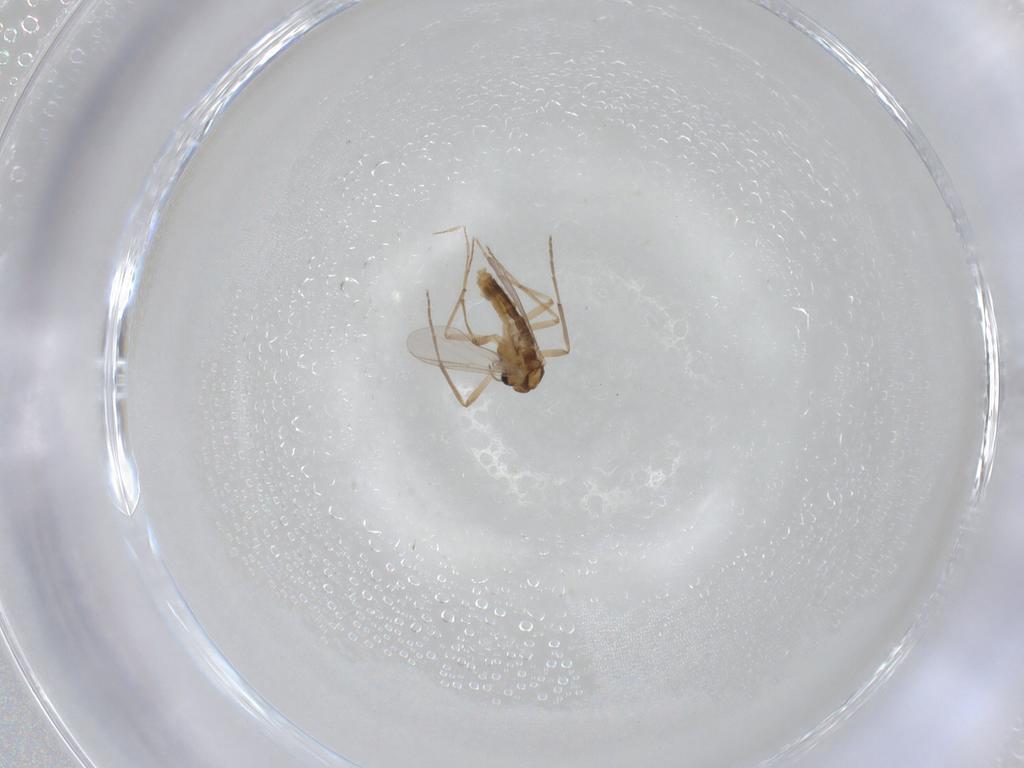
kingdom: Animalia
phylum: Arthropoda
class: Insecta
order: Diptera
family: Chironomidae
